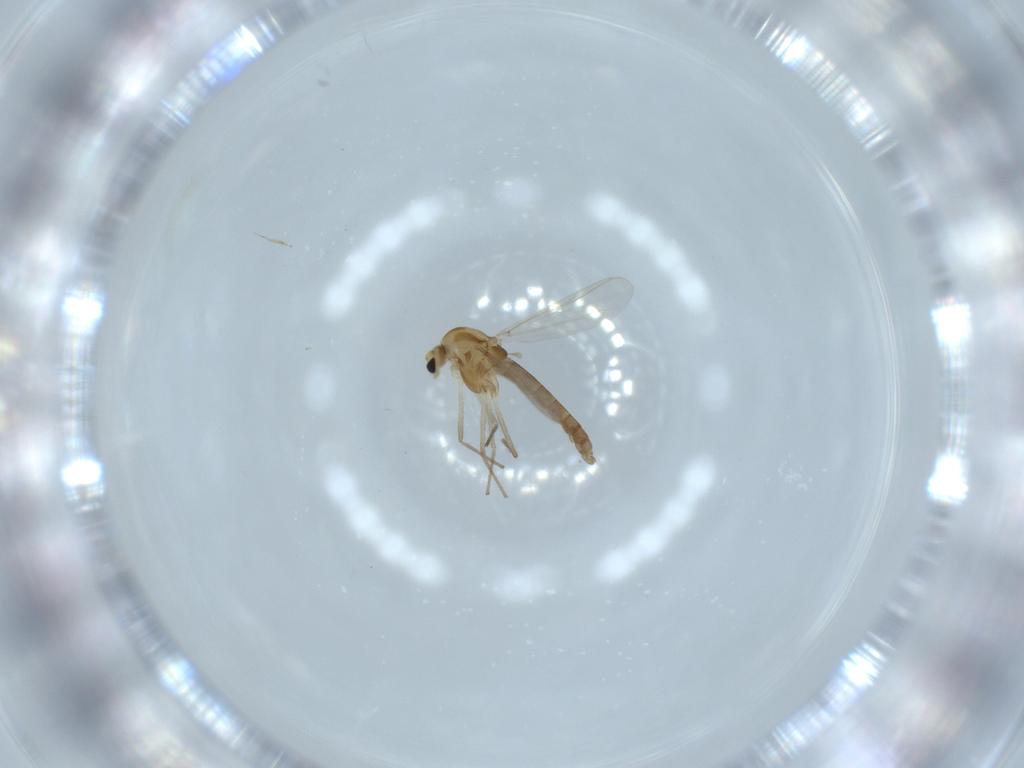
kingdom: Animalia
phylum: Arthropoda
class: Insecta
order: Diptera
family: Chironomidae
